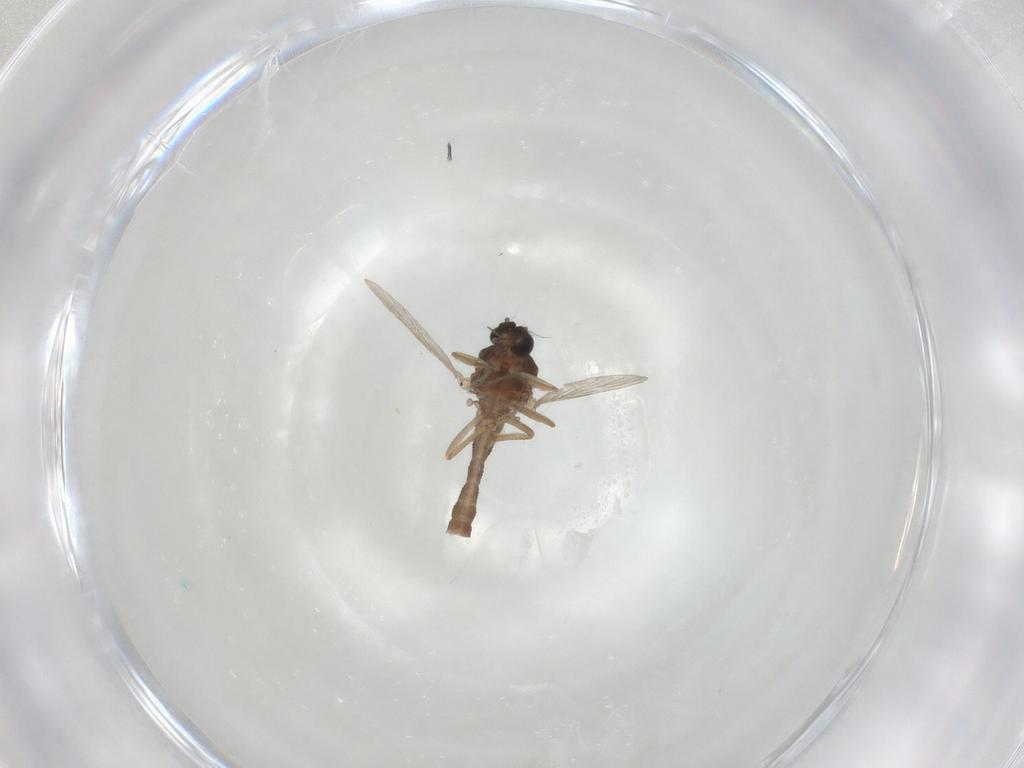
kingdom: Animalia
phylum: Arthropoda
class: Insecta
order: Diptera
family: Ceratopogonidae
